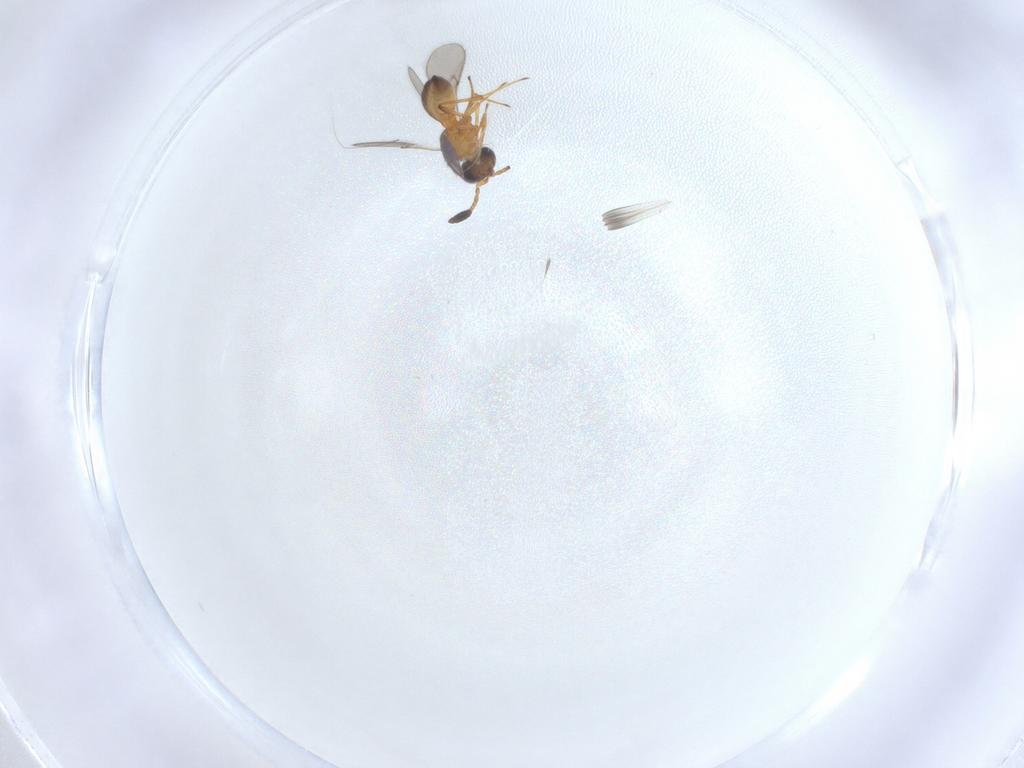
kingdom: Animalia
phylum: Arthropoda
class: Insecta
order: Hymenoptera
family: Scelionidae
